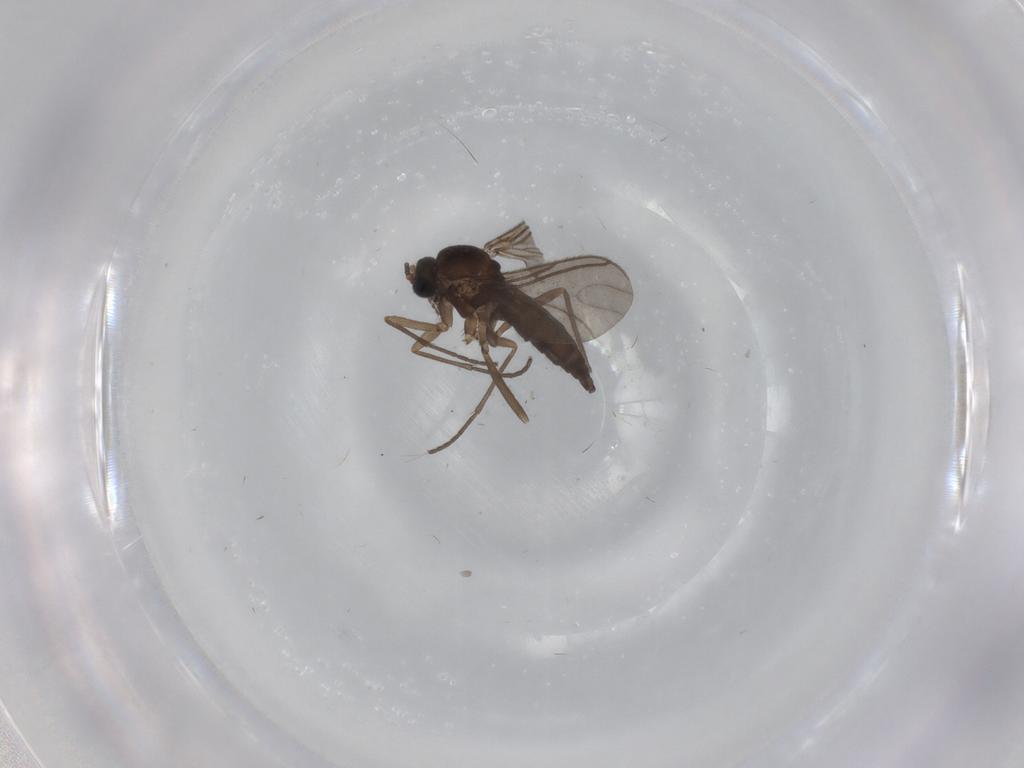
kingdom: Animalia
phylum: Arthropoda
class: Insecta
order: Diptera
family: Sciaridae
